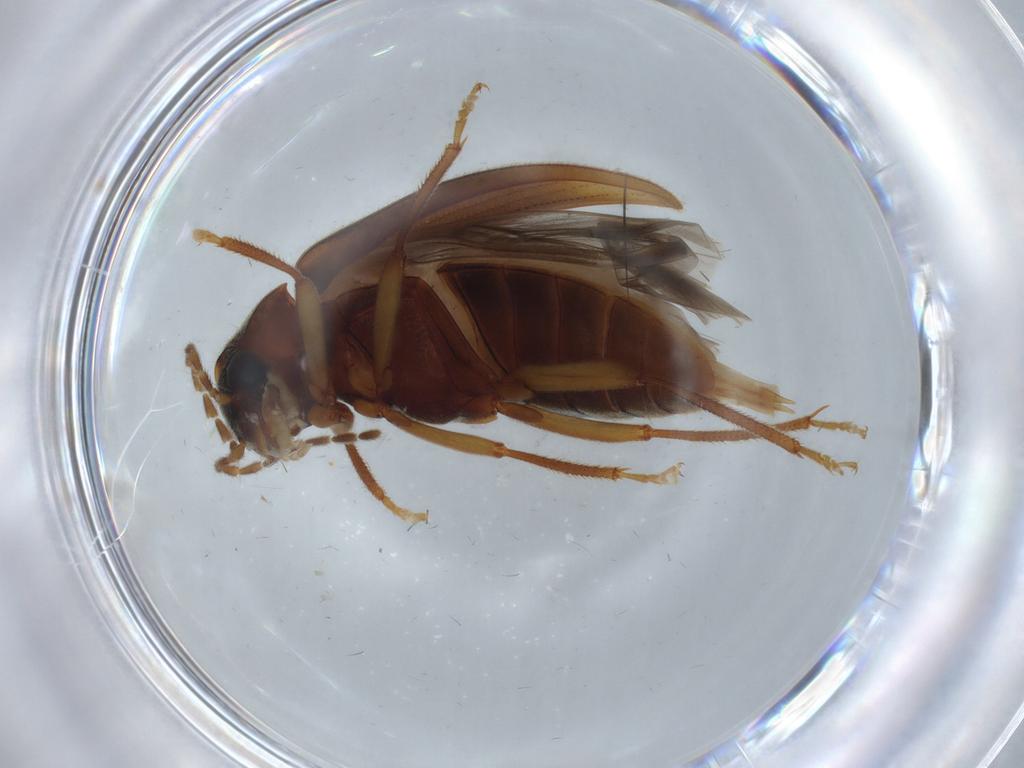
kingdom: Animalia
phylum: Arthropoda
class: Insecta
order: Coleoptera
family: Ptilodactylidae
